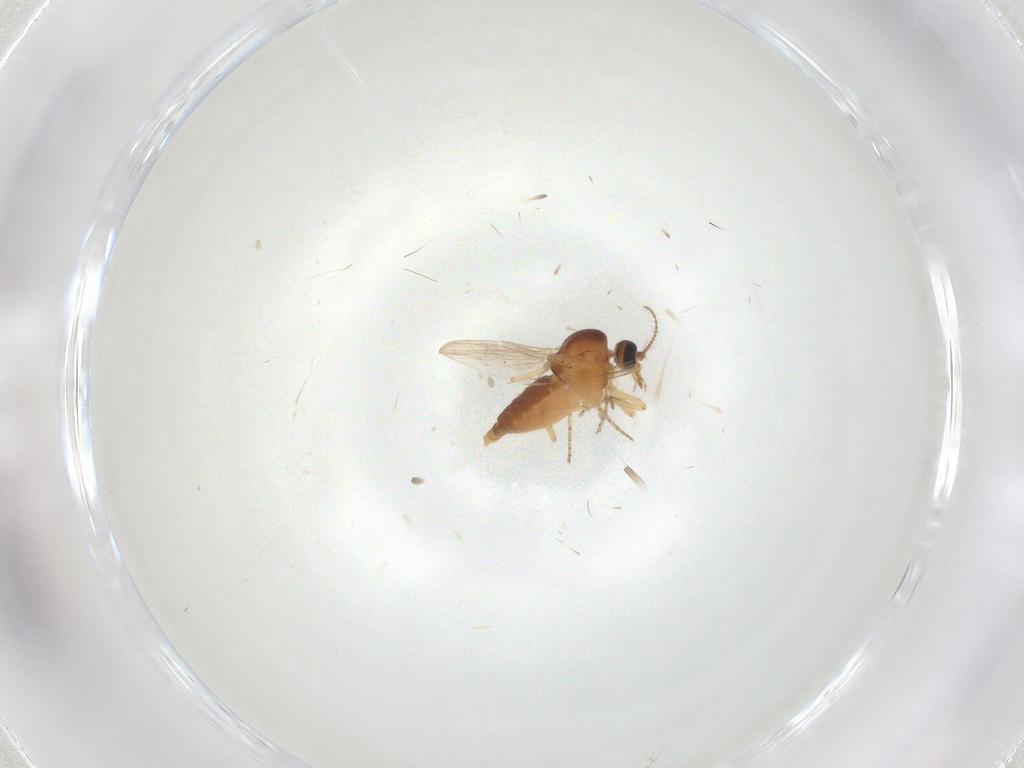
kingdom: Animalia
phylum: Arthropoda
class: Insecta
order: Diptera
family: Ceratopogonidae
